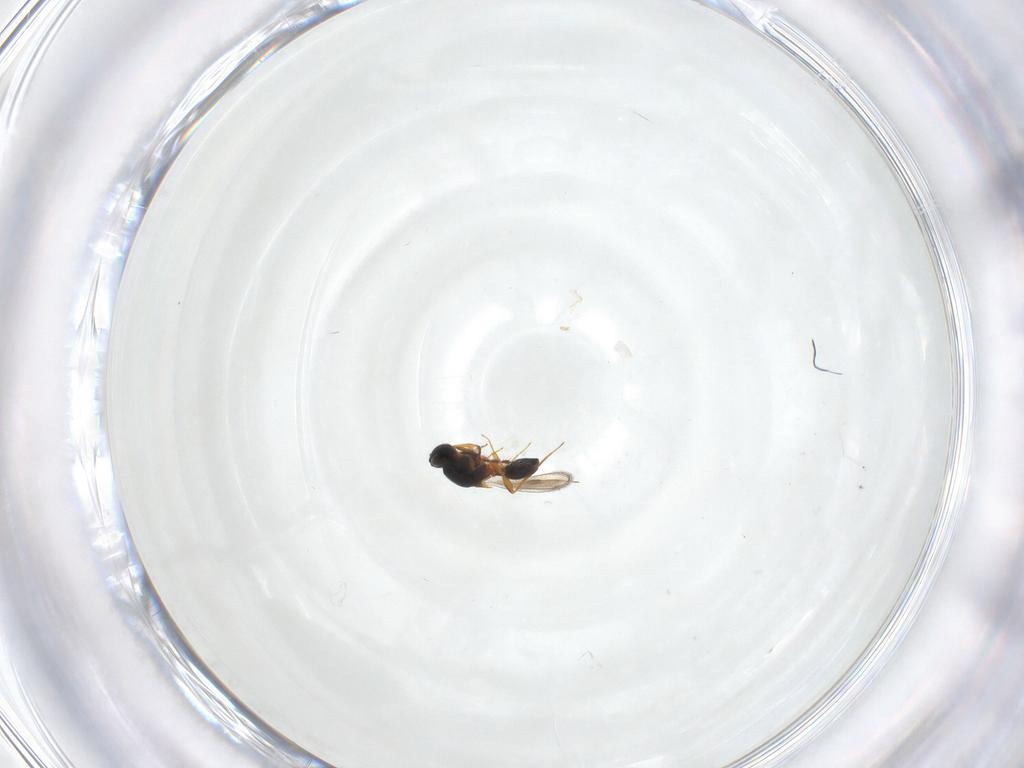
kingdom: Animalia
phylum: Arthropoda
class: Insecta
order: Hymenoptera
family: Platygastridae
